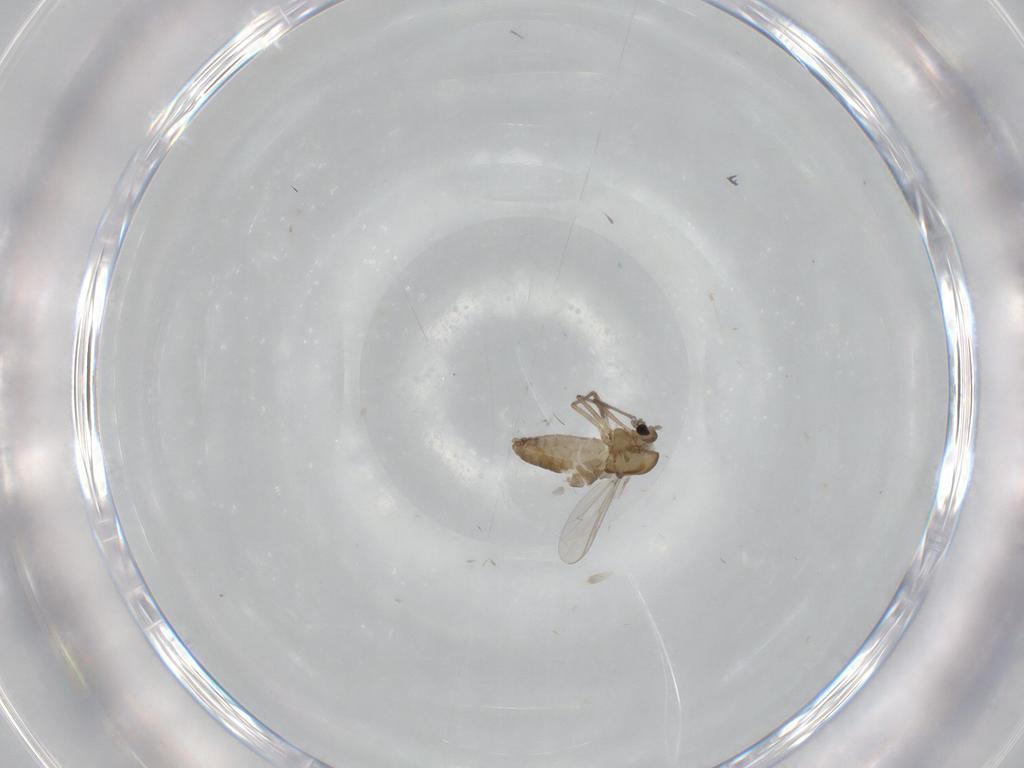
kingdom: Animalia
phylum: Arthropoda
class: Insecta
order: Diptera
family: Chironomidae
